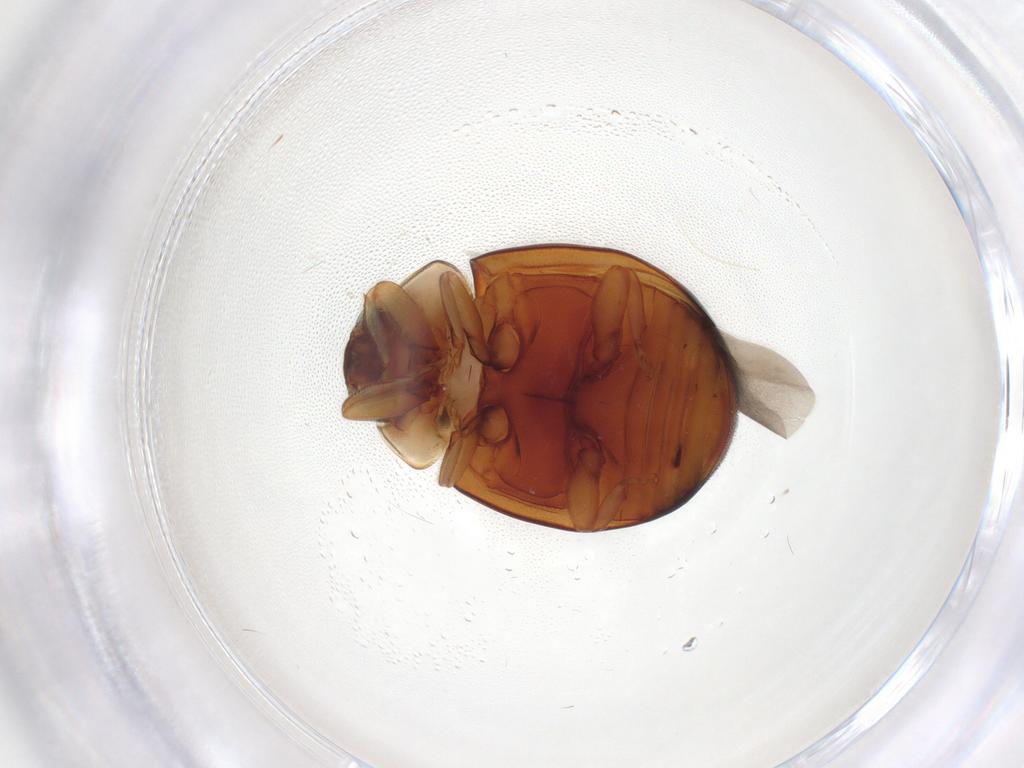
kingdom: Animalia
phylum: Arthropoda
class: Insecta
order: Coleoptera
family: Coccinellidae
